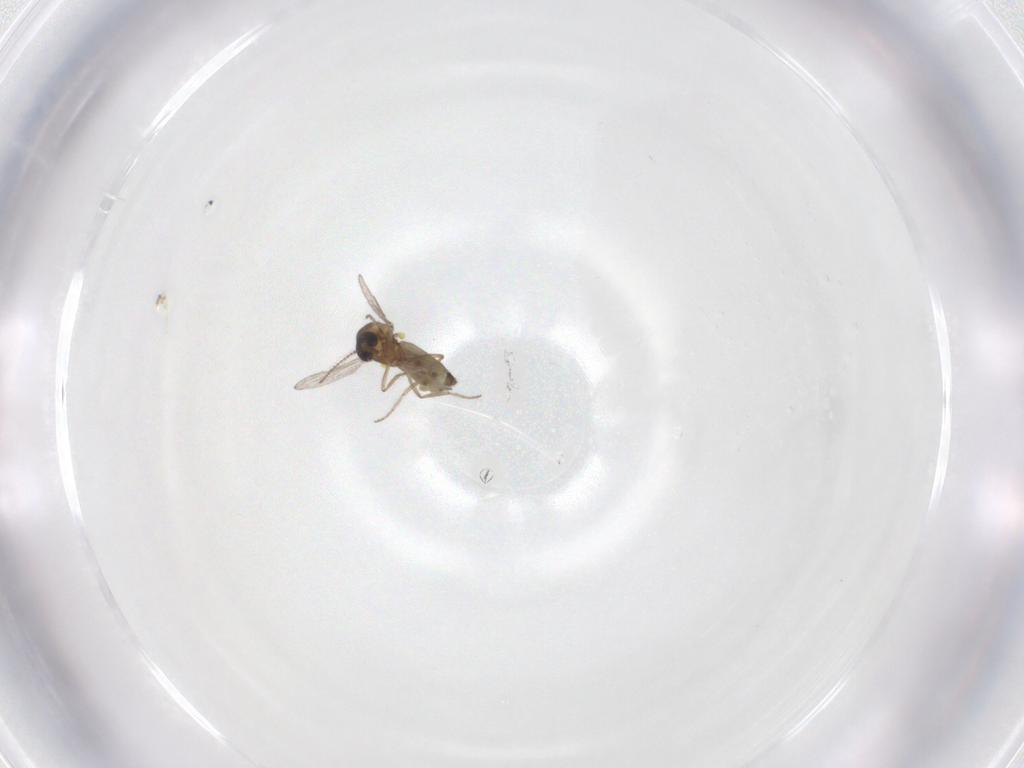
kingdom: Animalia
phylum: Arthropoda
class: Insecta
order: Diptera
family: Ceratopogonidae
